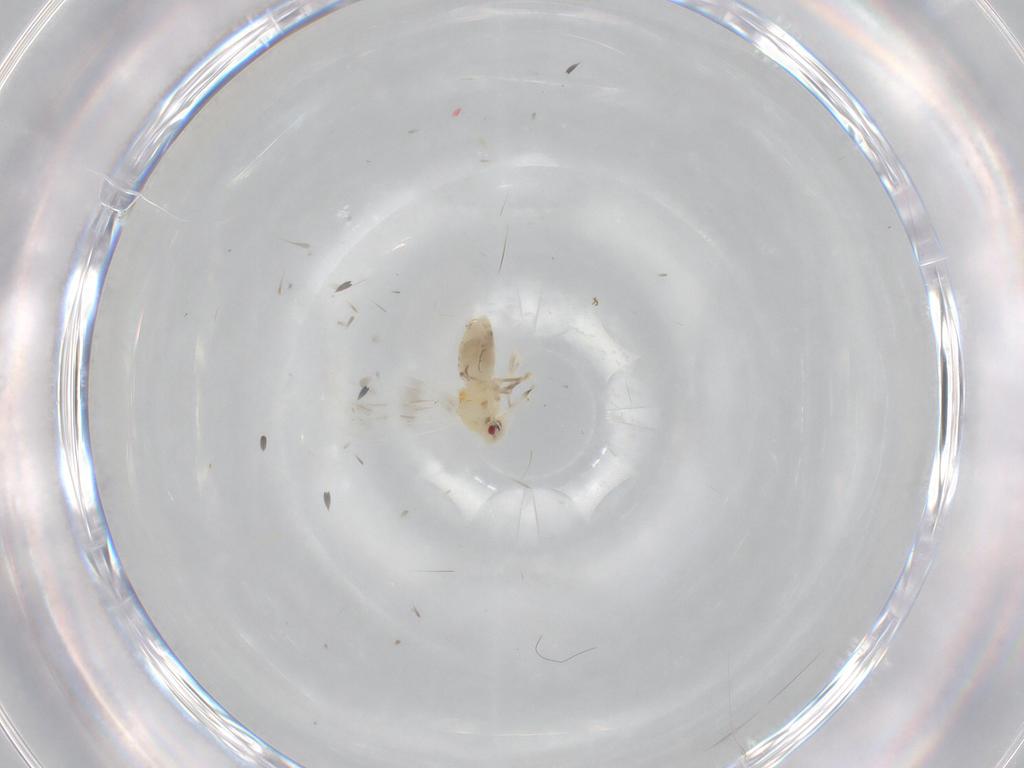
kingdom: Animalia
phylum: Arthropoda
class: Insecta
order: Hemiptera
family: Aleyrodidae
